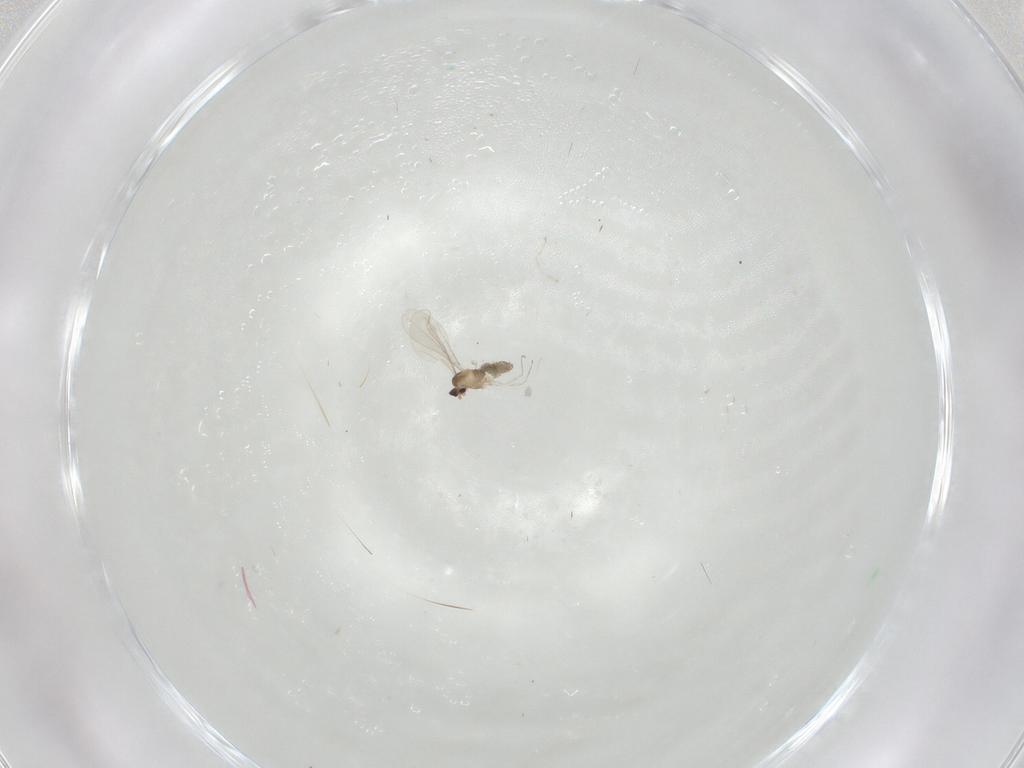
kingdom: Animalia
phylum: Arthropoda
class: Insecta
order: Diptera
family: Cecidomyiidae
